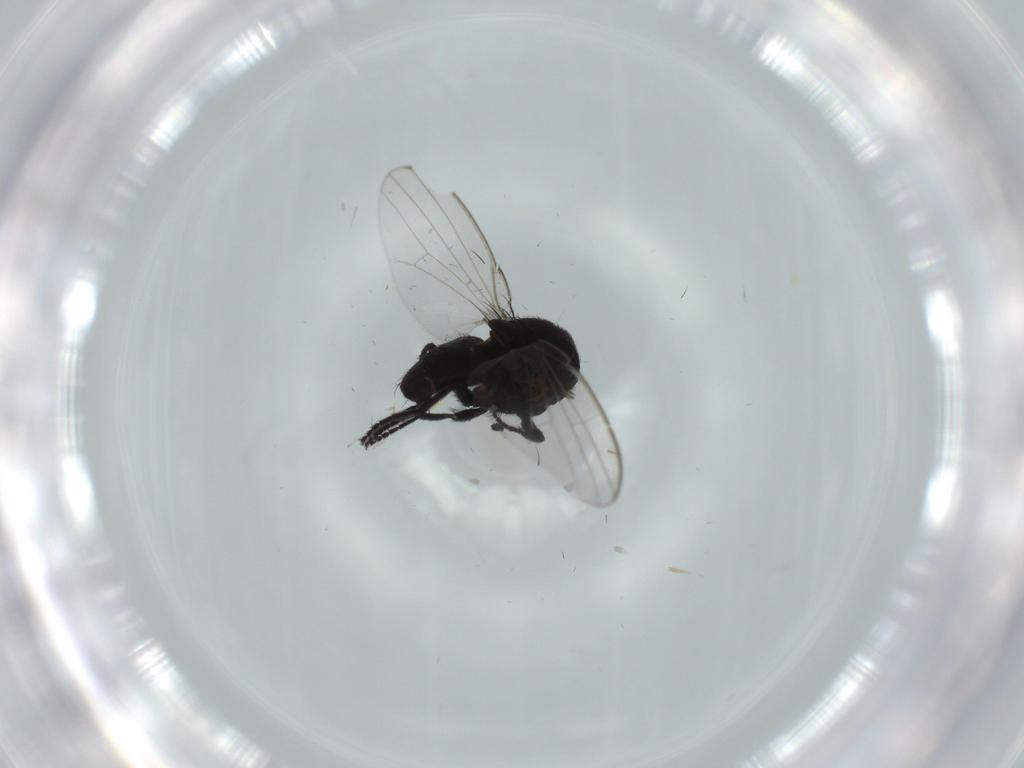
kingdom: Animalia
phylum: Arthropoda
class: Insecta
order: Diptera
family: Milichiidae
